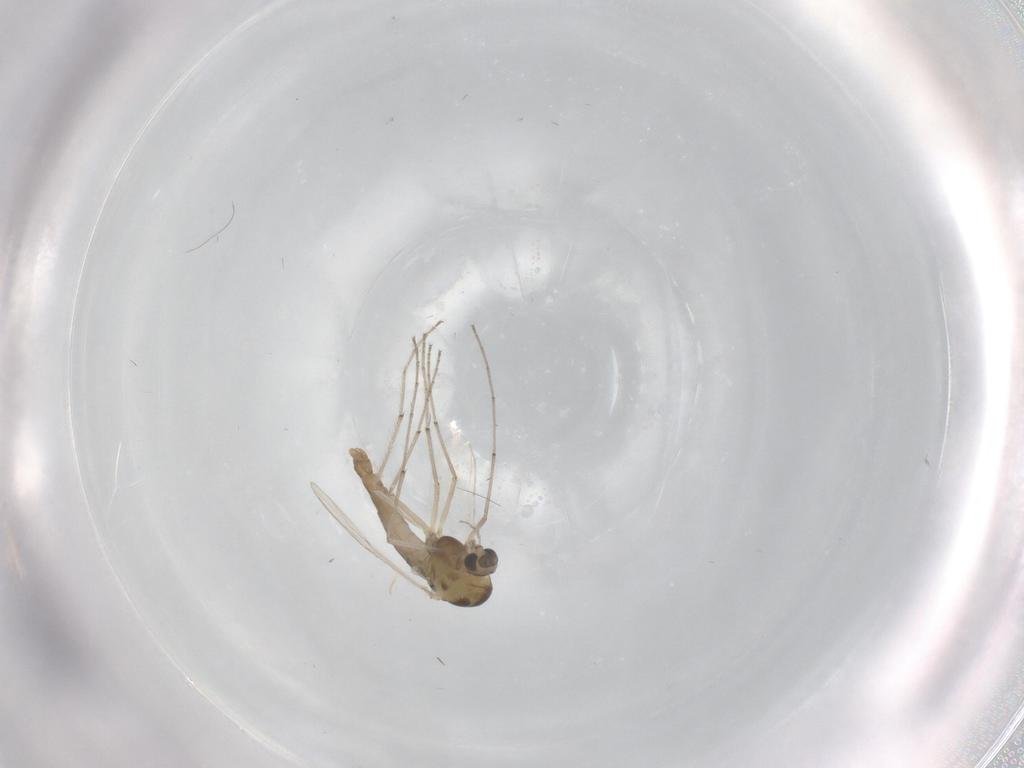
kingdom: Animalia
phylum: Arthropoda
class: Insecta
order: Diptera
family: Chironomidae
